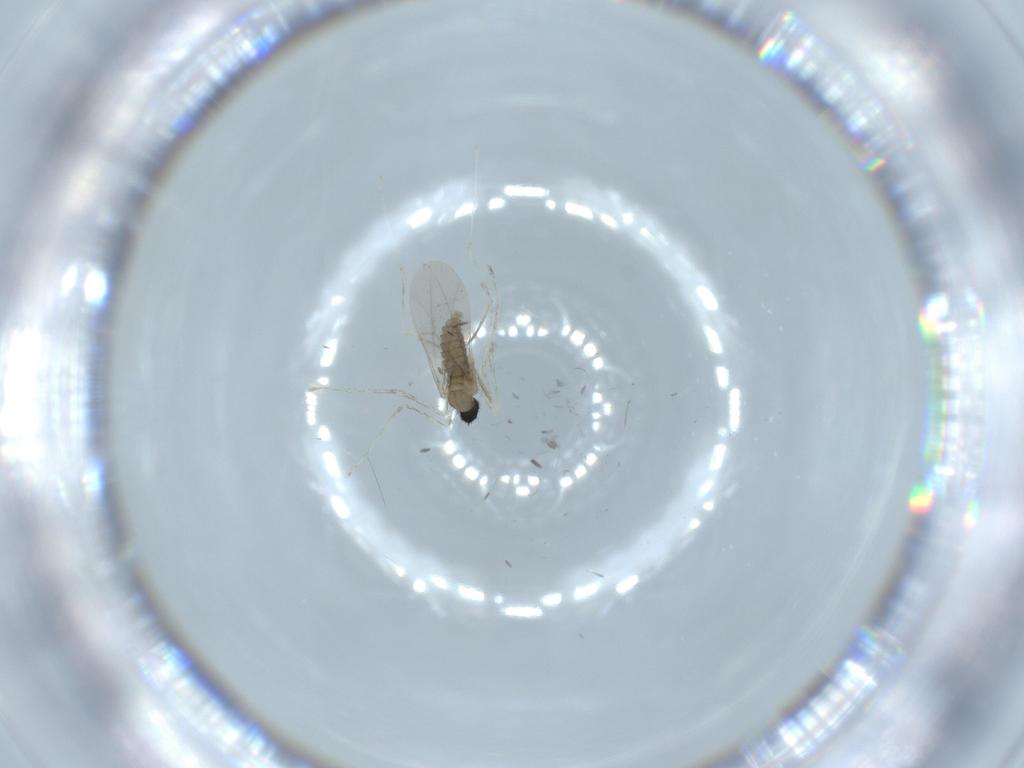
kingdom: Animalia
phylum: Arthropoda
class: Insecta
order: Diptera
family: Cecidomyiidae
